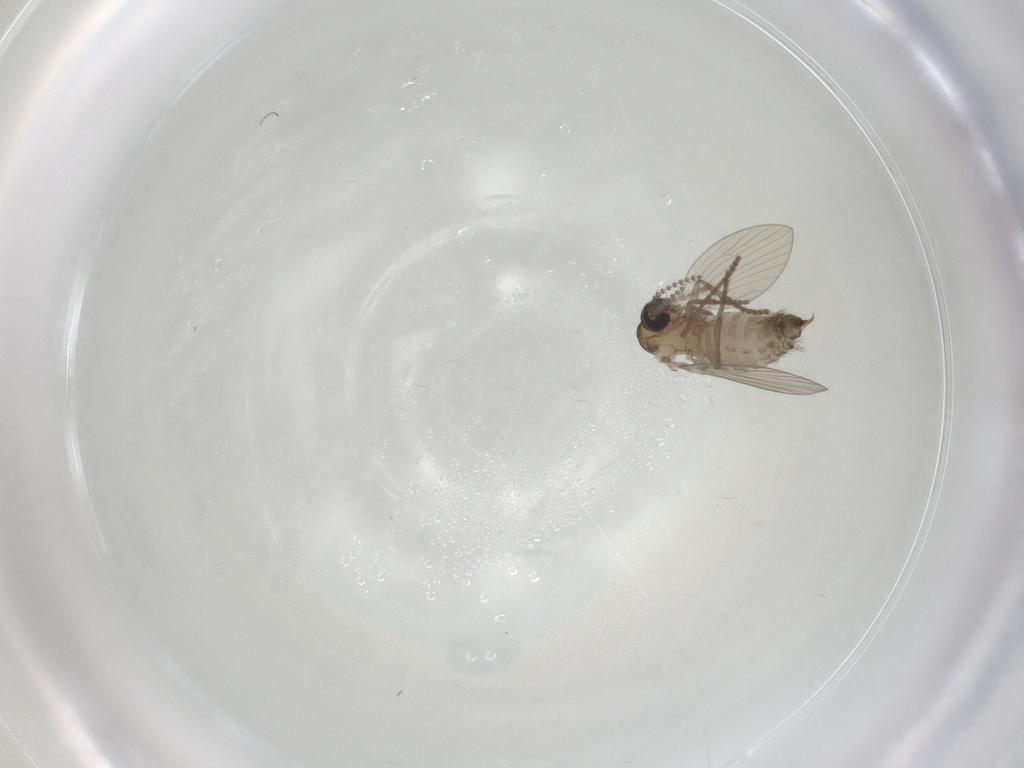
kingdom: Animalia
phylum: Arthropoda
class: Insecta
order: Diptera
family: Psychodidae
